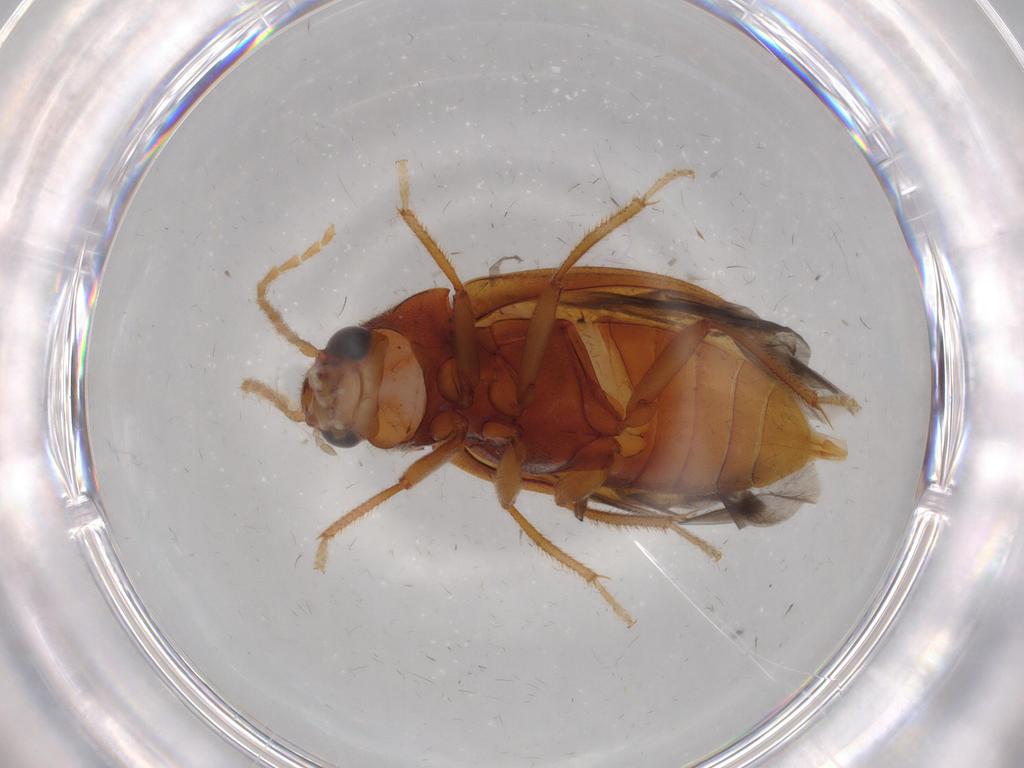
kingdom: Animalia
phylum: Arthropoda
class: Insecta
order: Coleoptera
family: Ptilodactylidae
